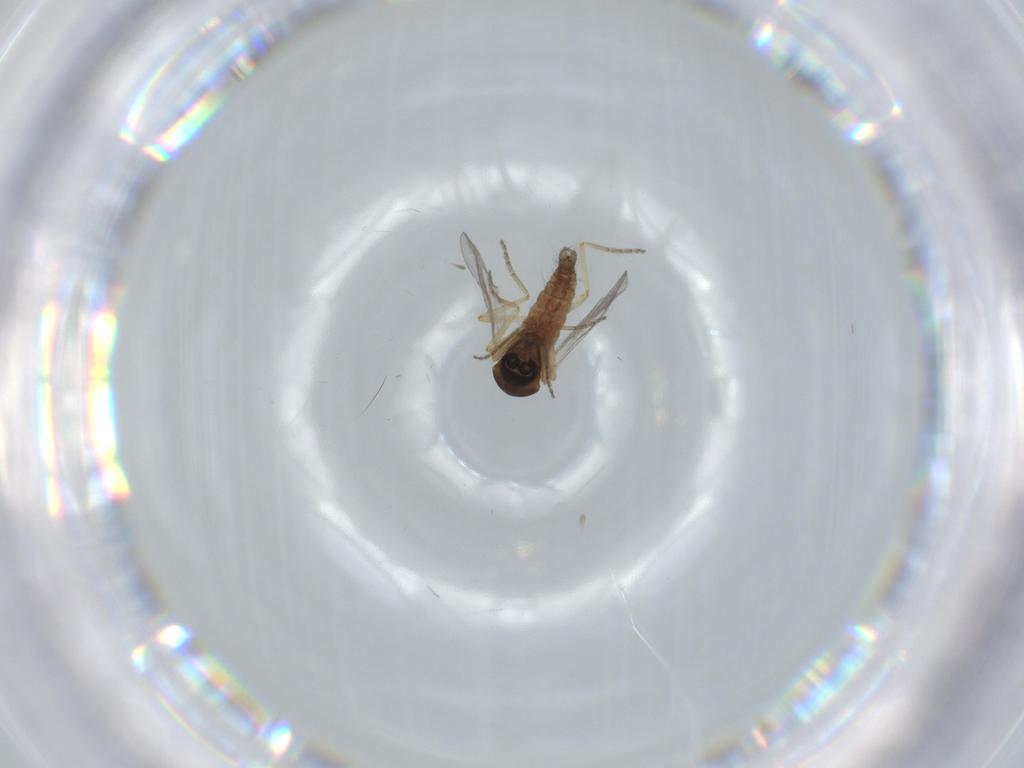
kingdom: Animalia
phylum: Arthropoda
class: Insecta
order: Diptera
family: Ceratopogonidae
